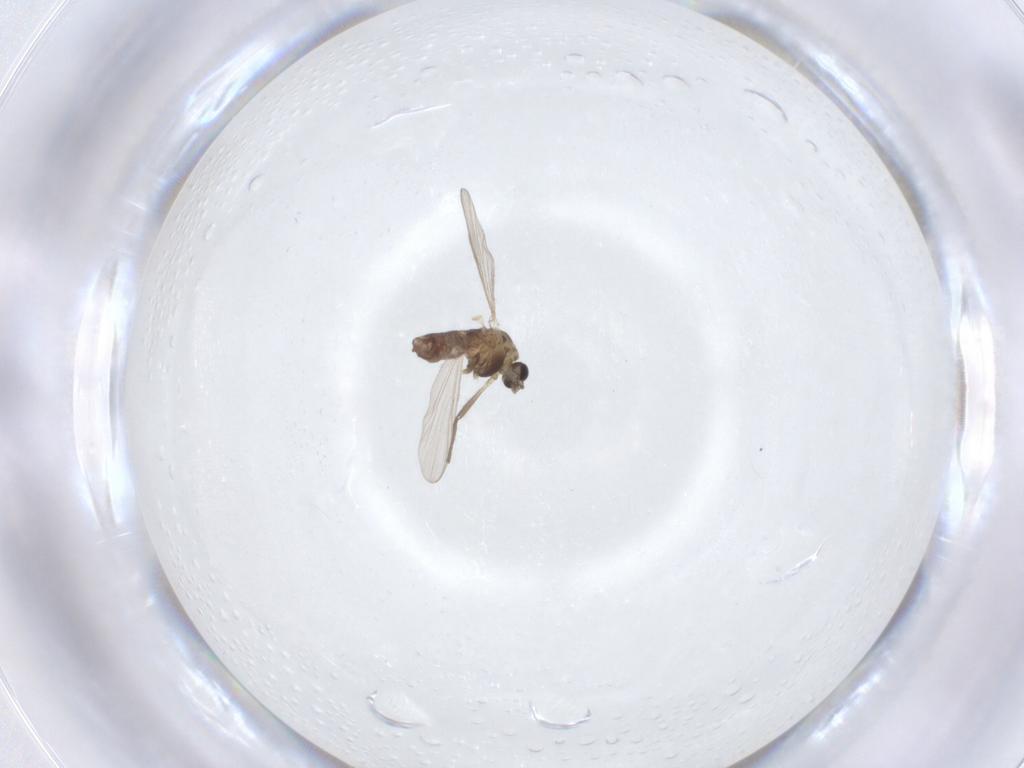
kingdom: Animalia
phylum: Arthropoda
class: Insecta
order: Diptera
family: Chironomidae
